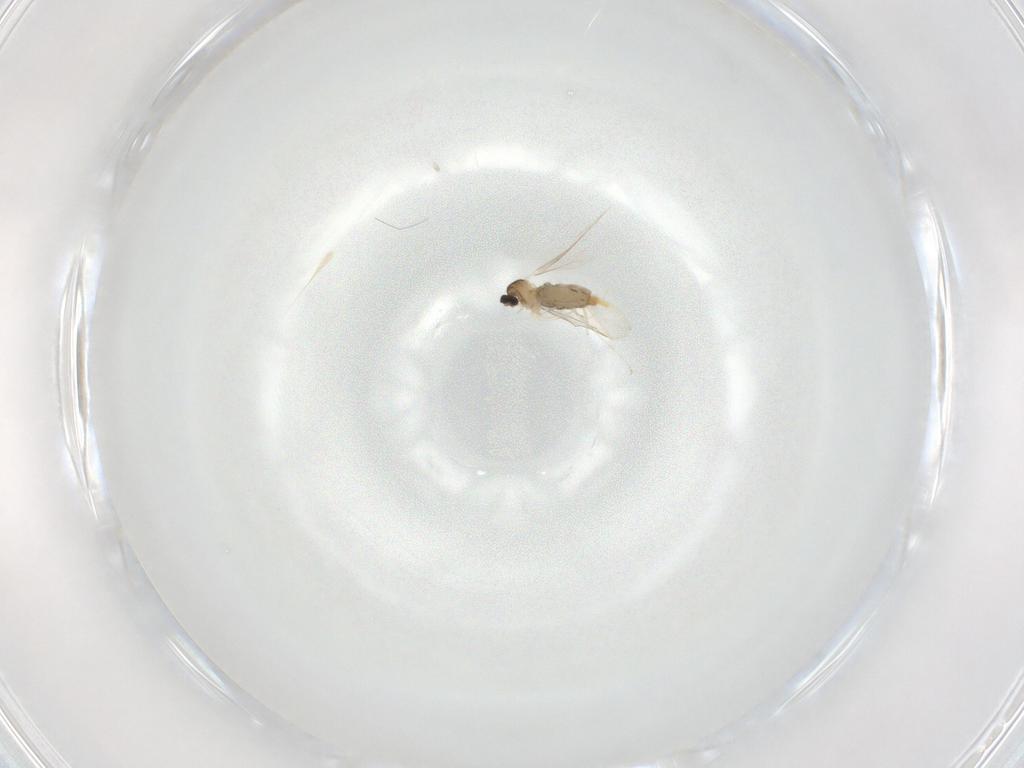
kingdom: Animalia
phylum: Arthropoda
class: Insecta
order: Diptera
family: Cecidomyiidae
